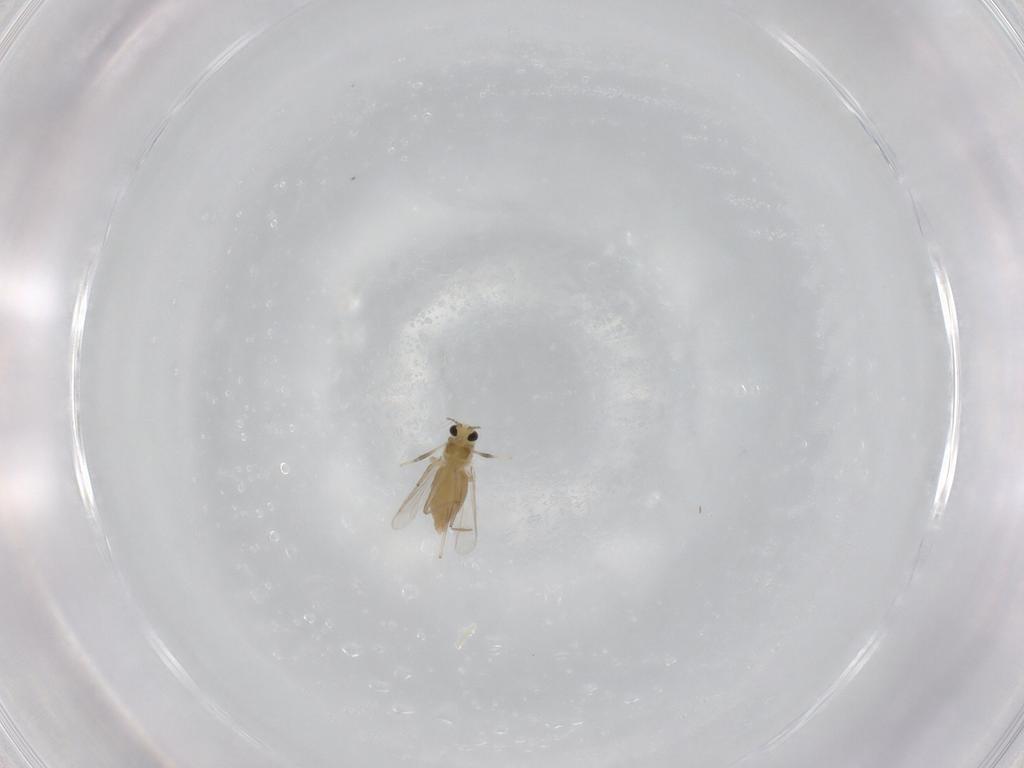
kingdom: Animalia
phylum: Arthropoda
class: Insecta
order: Diptera
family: Chironomidae
